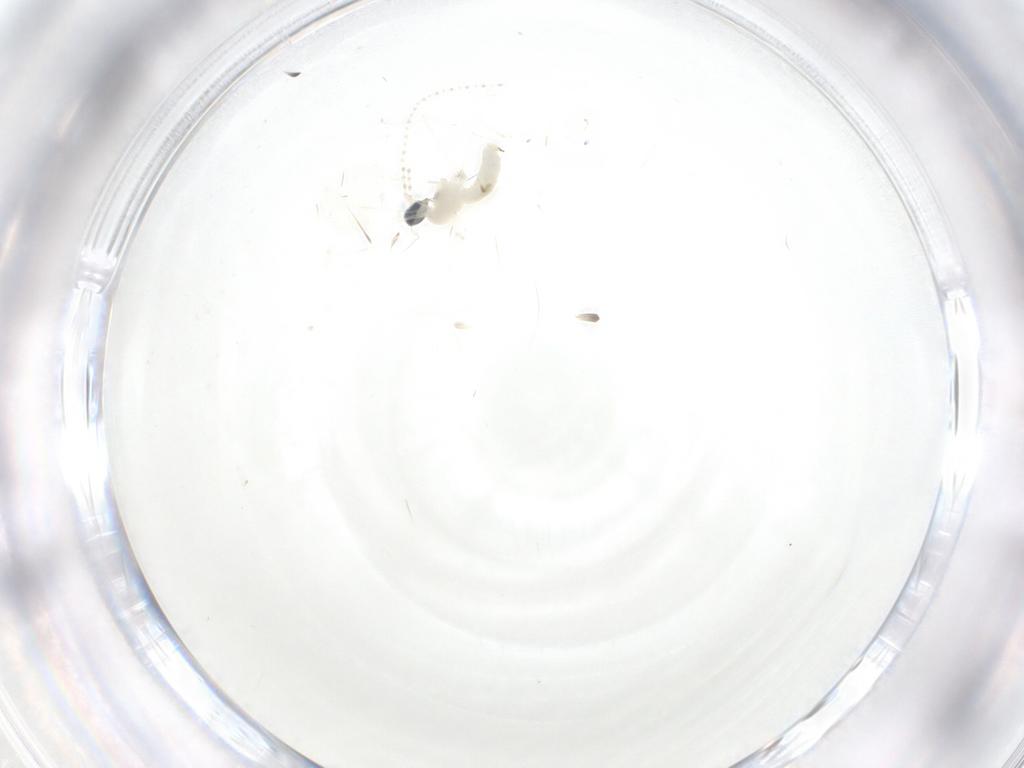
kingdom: Animalia
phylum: Arthropoda
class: Insecta
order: Diptera
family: Cecidomyiidae
